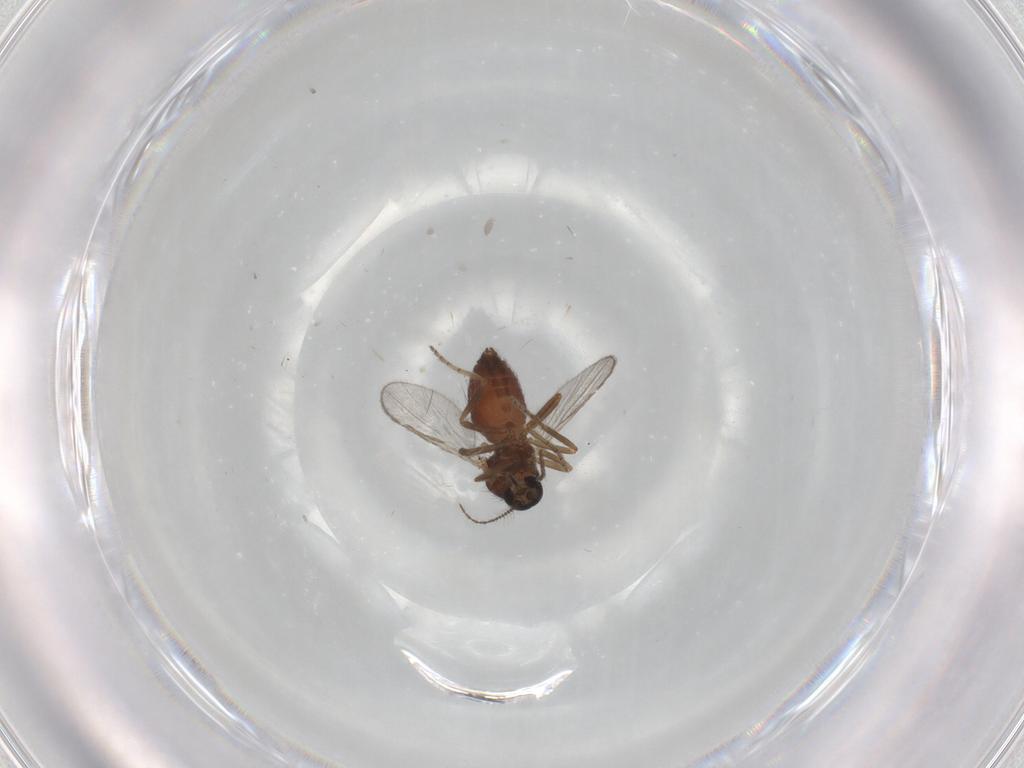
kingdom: Animalia
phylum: Arthropoda
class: Insecta
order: Diptera
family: Ceratopogonidae
